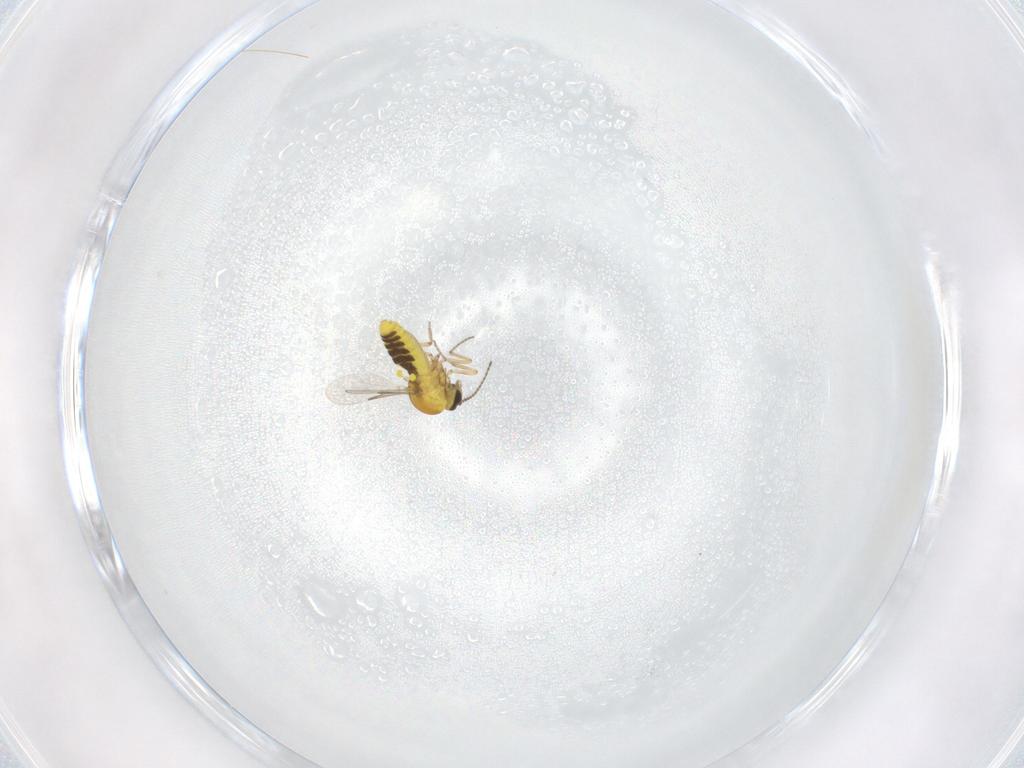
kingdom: Animalia
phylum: Arthropoda
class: Insecta
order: Diptera
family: Ceratopogonidae
